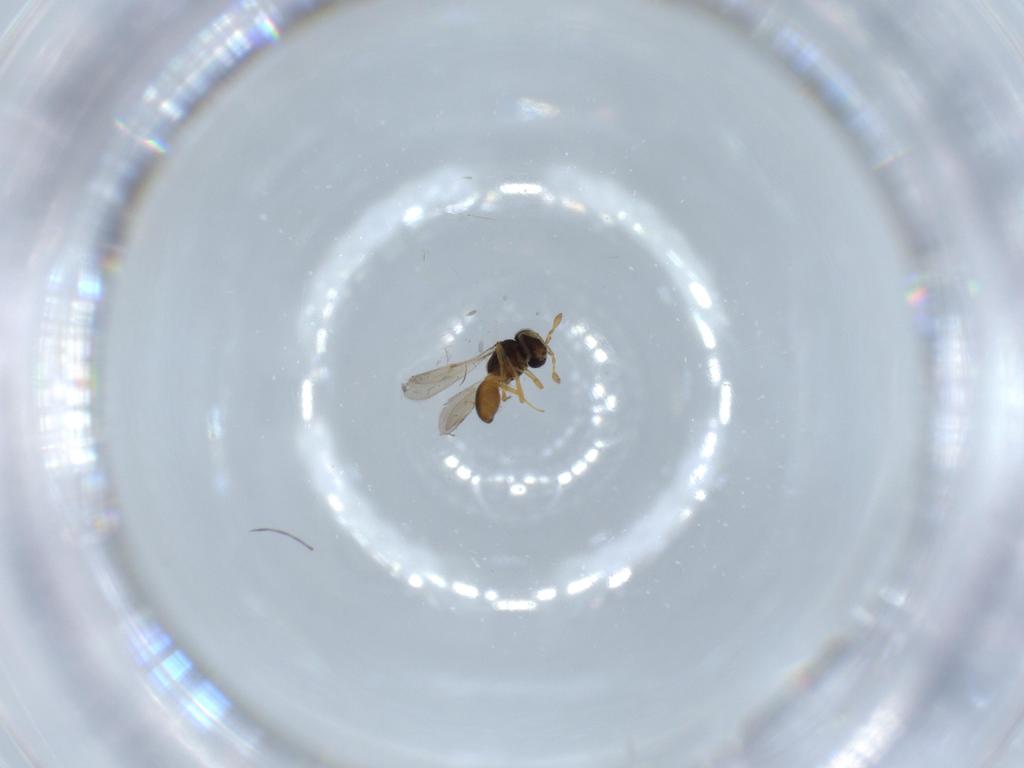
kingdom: Animalia
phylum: Arthropoda
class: Insecta
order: Hymenoptera
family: Scelionidae
